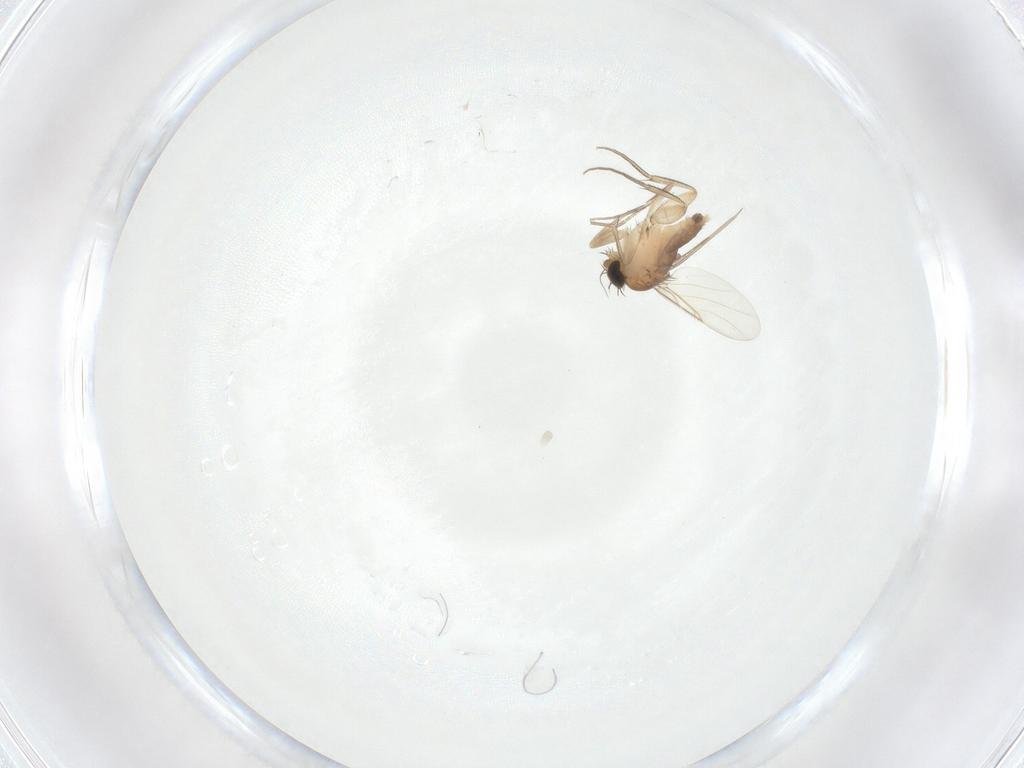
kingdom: Animalia
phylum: Arthropoda
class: Insecta
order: Diptera
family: Phoridae
